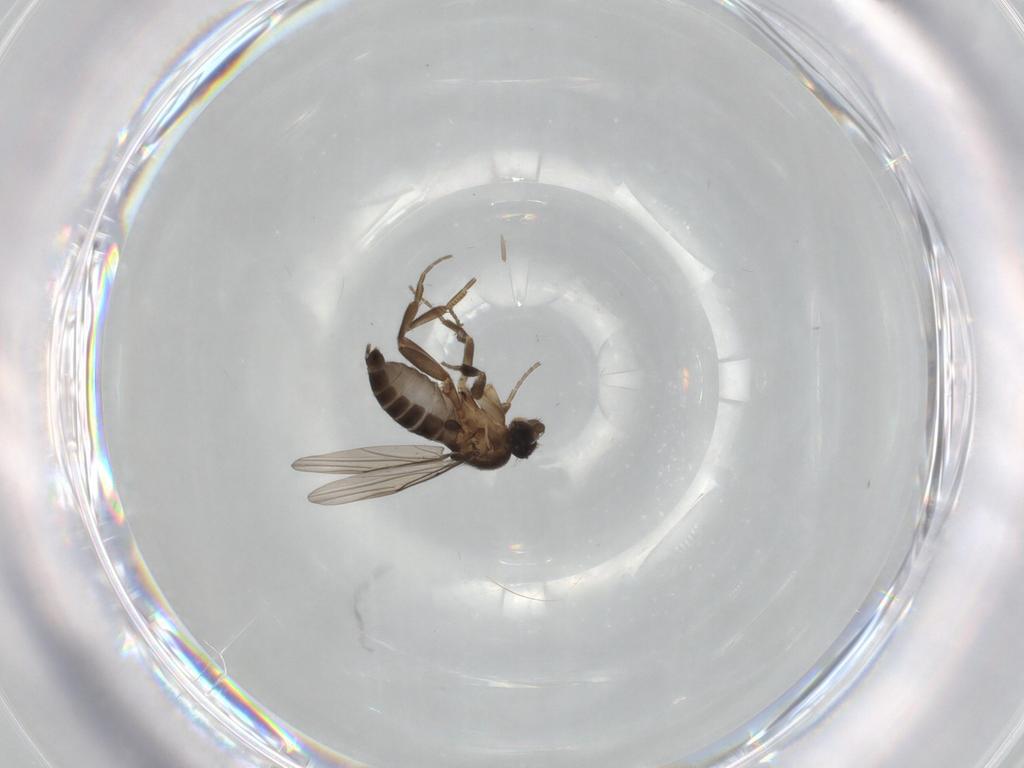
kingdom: Animalia
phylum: Arthropoda
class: Insecta
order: Diptera
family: Phoridae
